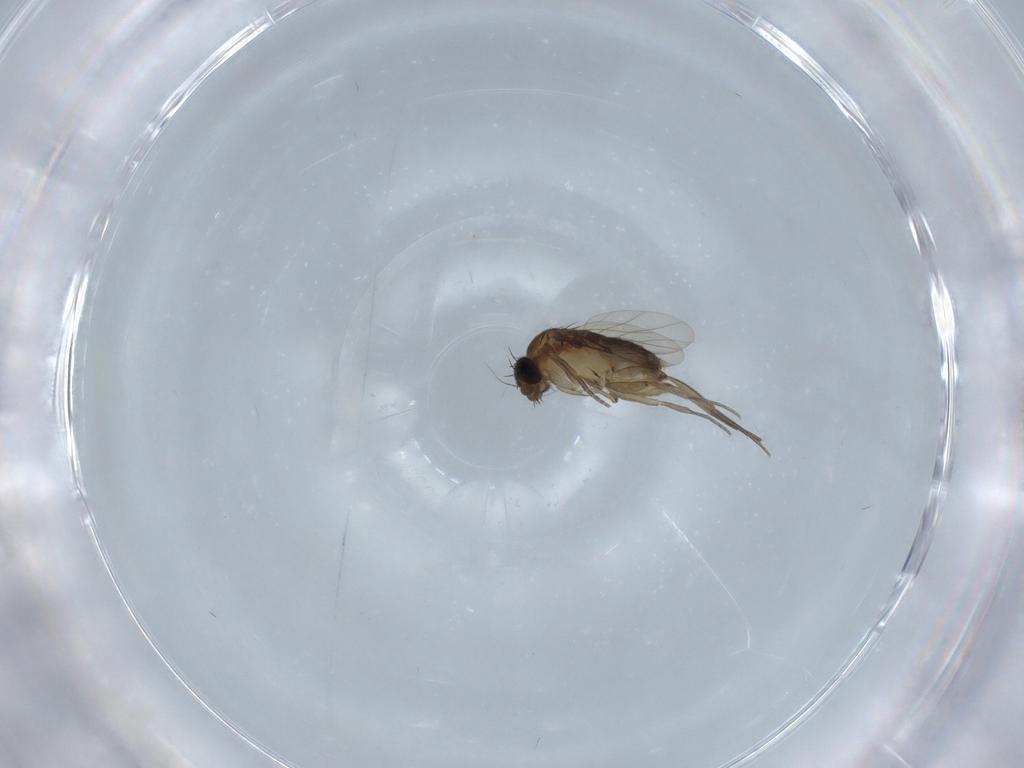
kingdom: Animalia
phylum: Arthropoda
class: Insecta
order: Diptera
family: Phoridae
